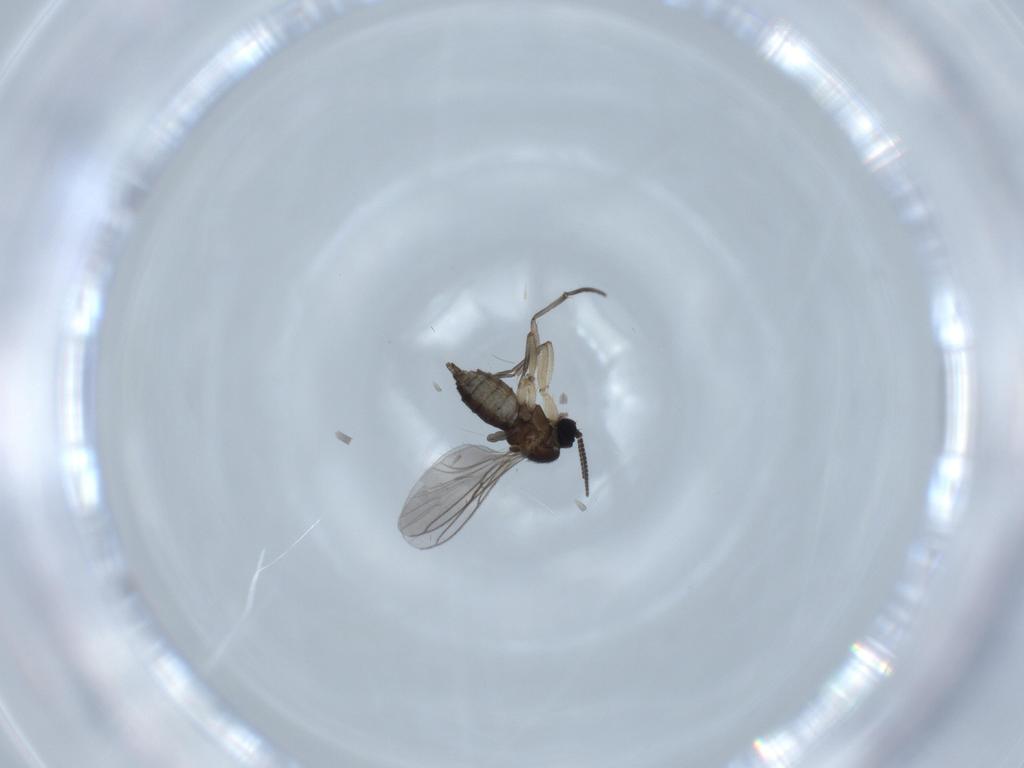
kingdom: Animalia
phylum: Arthropoda
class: Insecta
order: Diptera
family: Sciaridae
